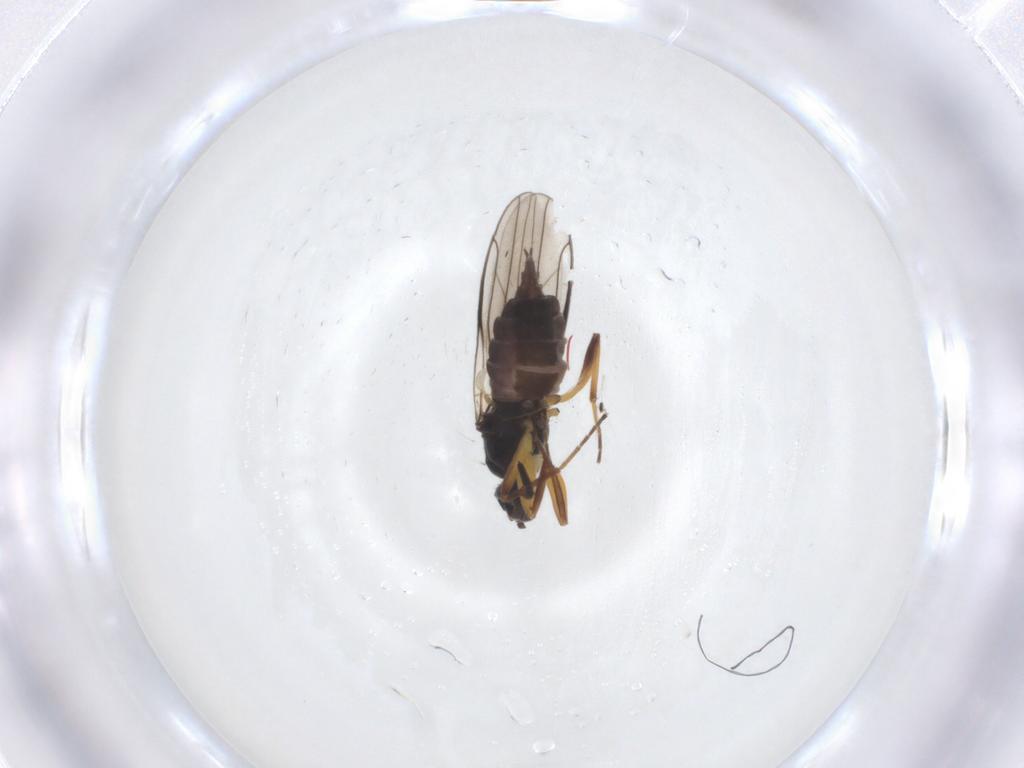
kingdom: Animalia
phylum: Arthropoda
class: Insecta
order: Diptera
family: Hybotidae
